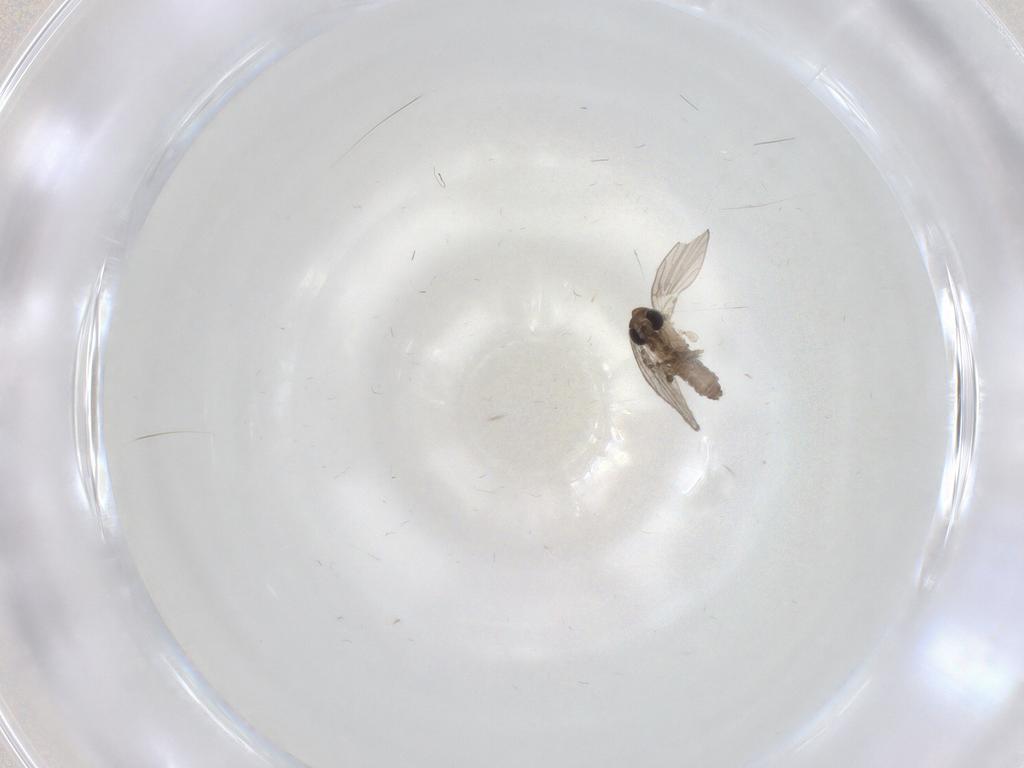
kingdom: Animalia
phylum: Arthropoda
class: Insecta
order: Diptera
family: Psychodidae
